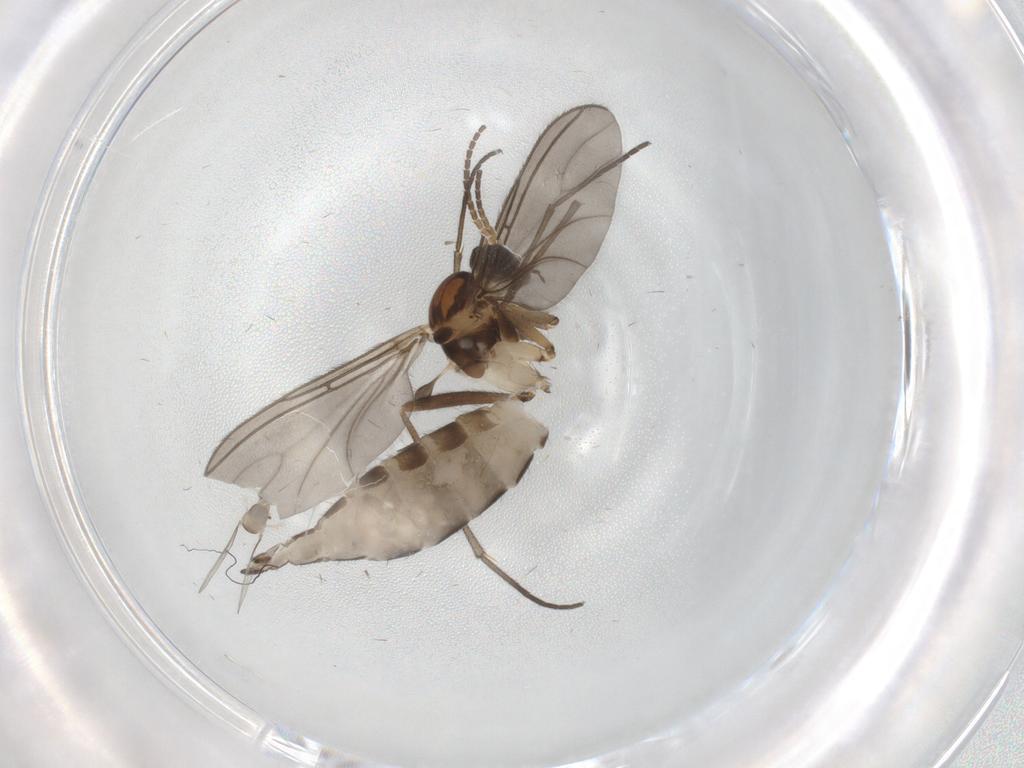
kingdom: Animalia
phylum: Arthropoda
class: Insecta
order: Diptera
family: Sciaridae
